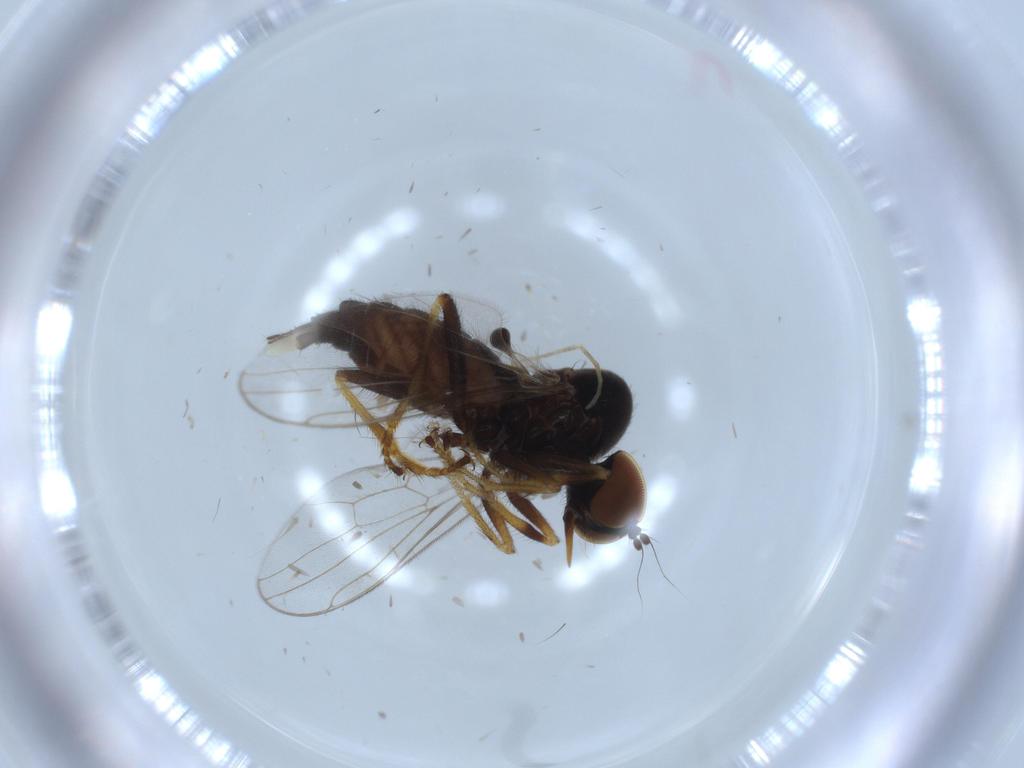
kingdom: Animalia
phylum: Arthropoda
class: Insecta
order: Diptera
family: Hybotidae
